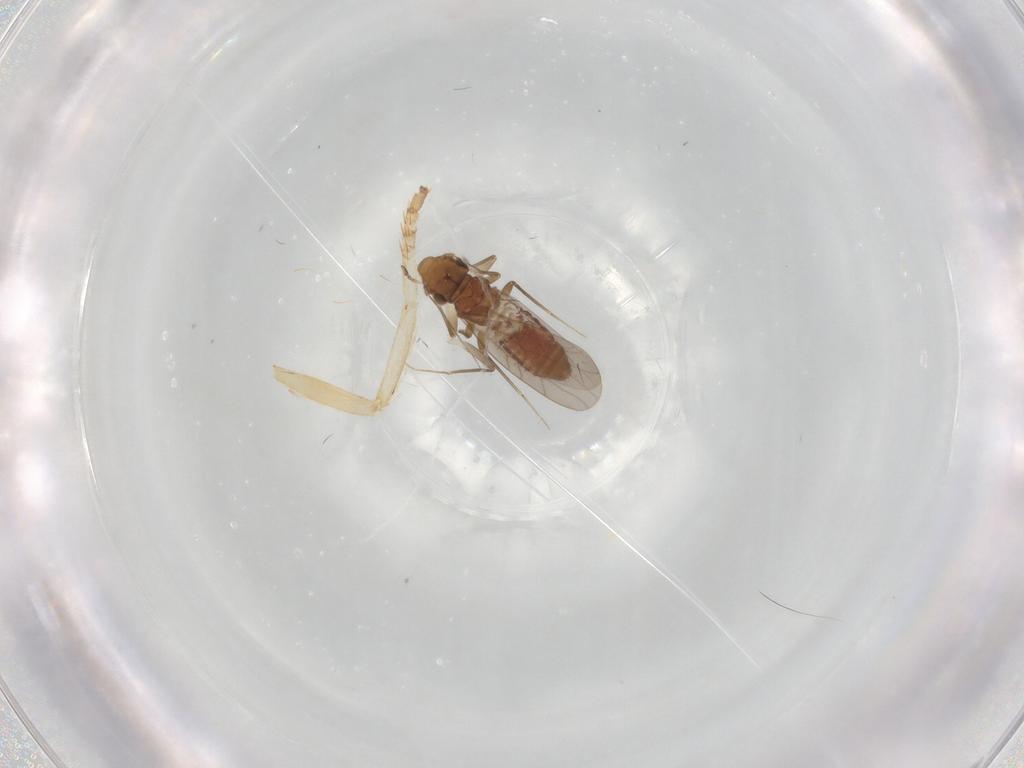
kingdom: Animalia
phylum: Arthropoda
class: Insecta
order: Psocodea
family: Lepidopsocidae
